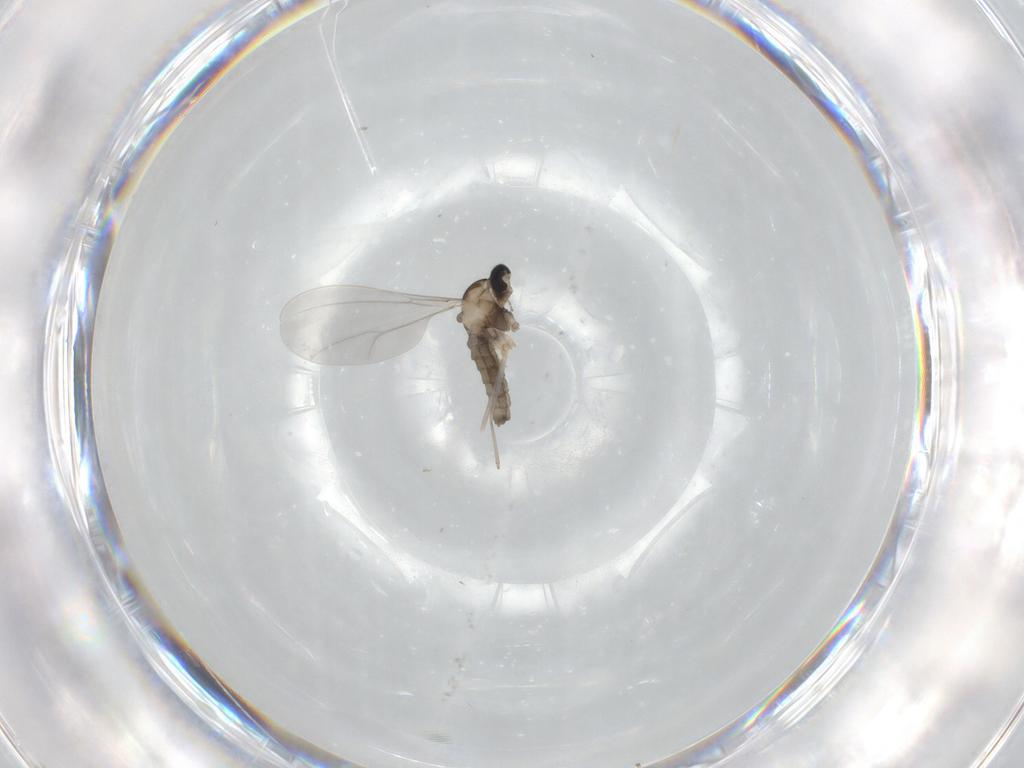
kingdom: Animalia
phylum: Arthropoda
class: Insecta
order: Diptera
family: Cecidomyiidae
